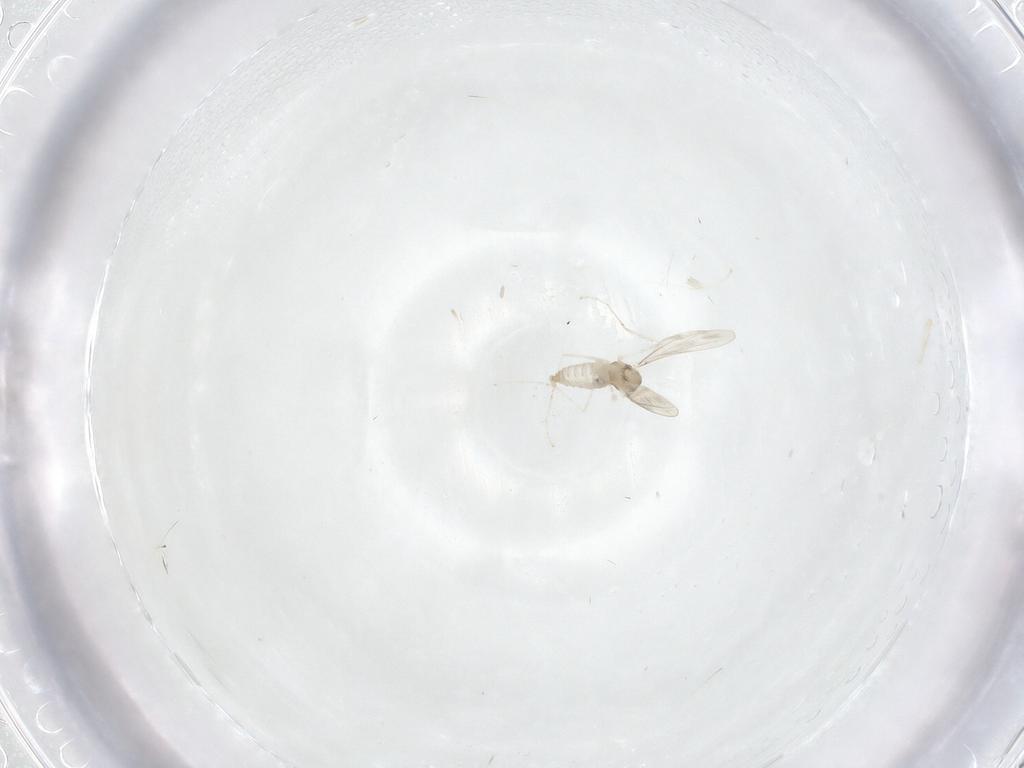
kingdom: Animalia
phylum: Arthropoda
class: Insecta
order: Diptera
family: Cecidomyiidae
